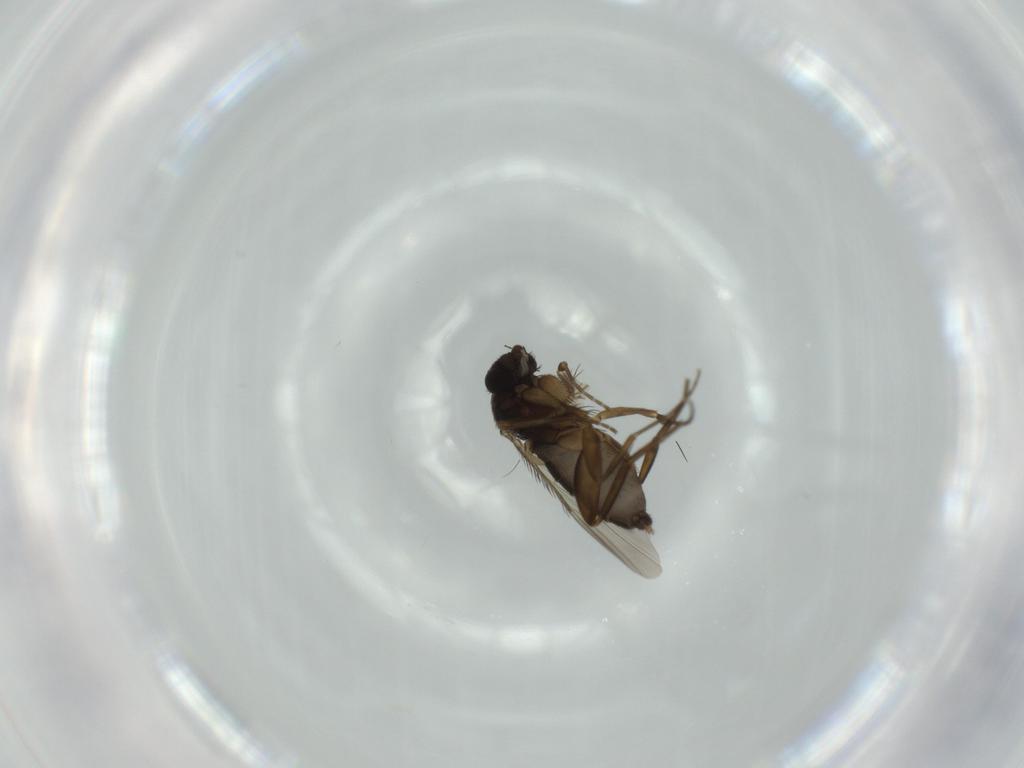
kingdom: Animalia
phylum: Arthropoda
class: Insecta
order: Diptera
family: Phoridae
